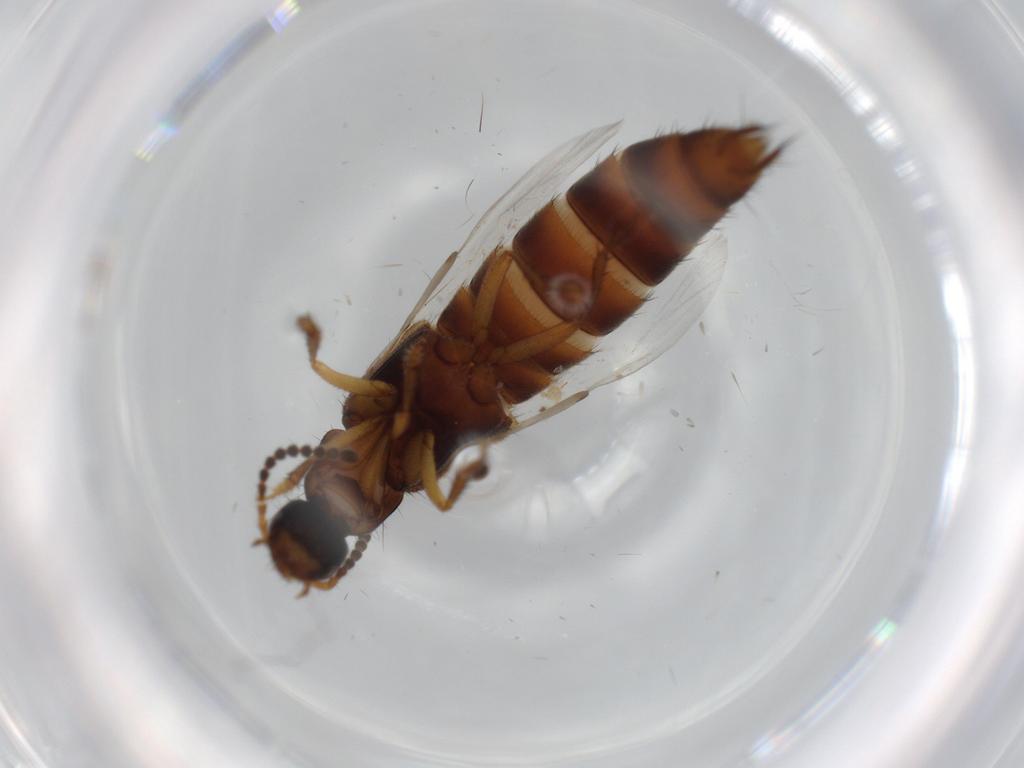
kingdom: Animalia
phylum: Arthropoda
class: Insecta
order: Coleoptera
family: Staphylinidae
